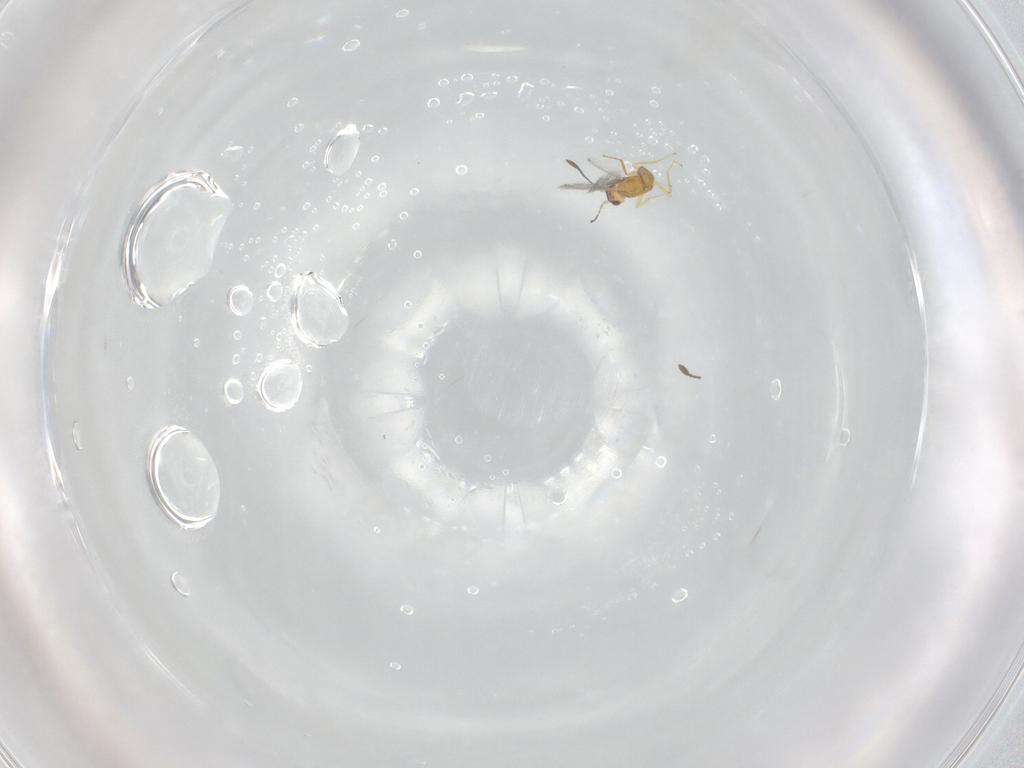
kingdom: Animalia
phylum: Arthropoda
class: Insecta
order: Hymenoptera
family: Mymaridae
